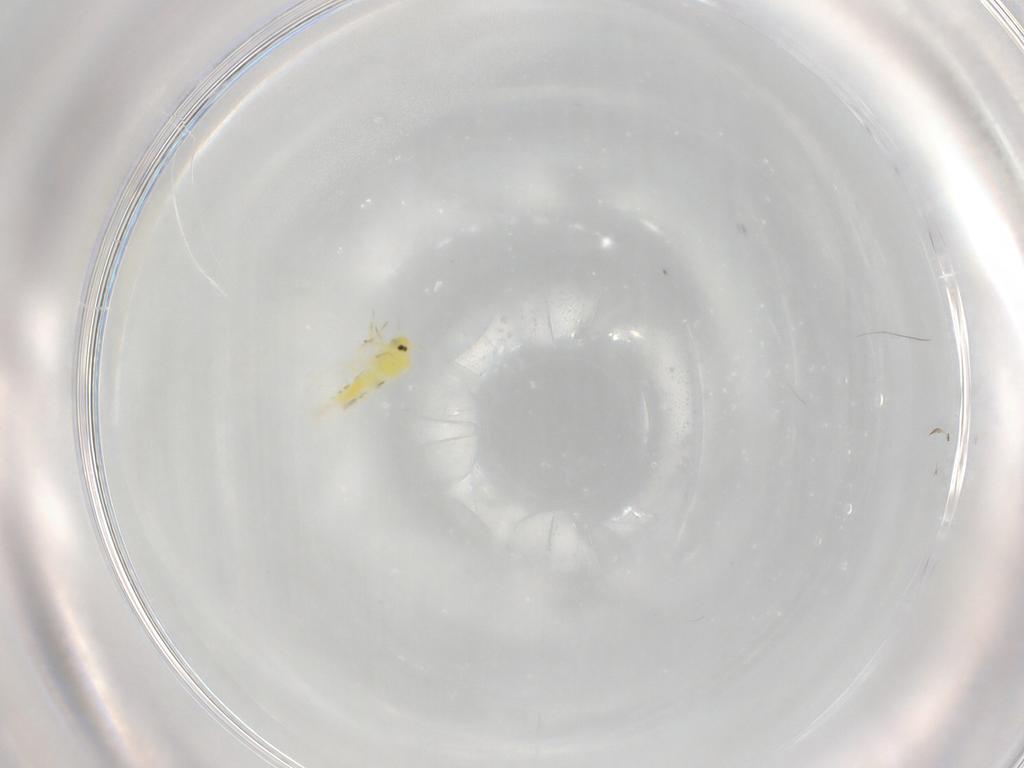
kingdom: Animalia
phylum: Arthropoda
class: Insecta
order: Hemiptera
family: Aleyrodidae
